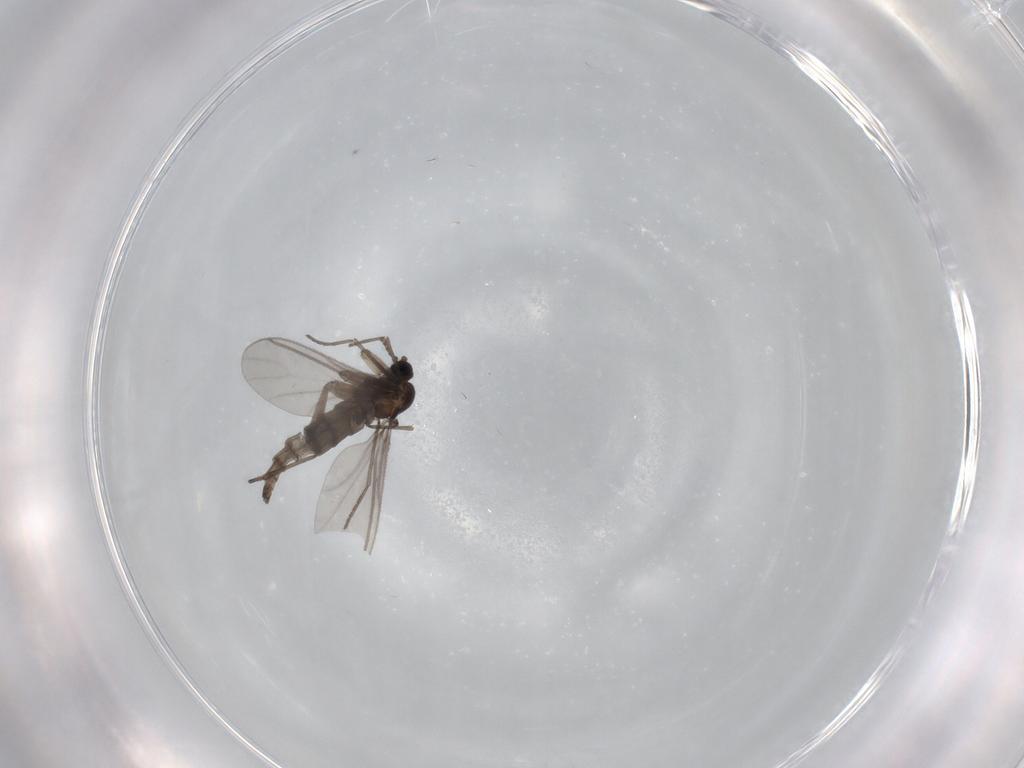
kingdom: Animalia
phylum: Arthropoda
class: Insecta
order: Diptera
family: Dolichopodidae
